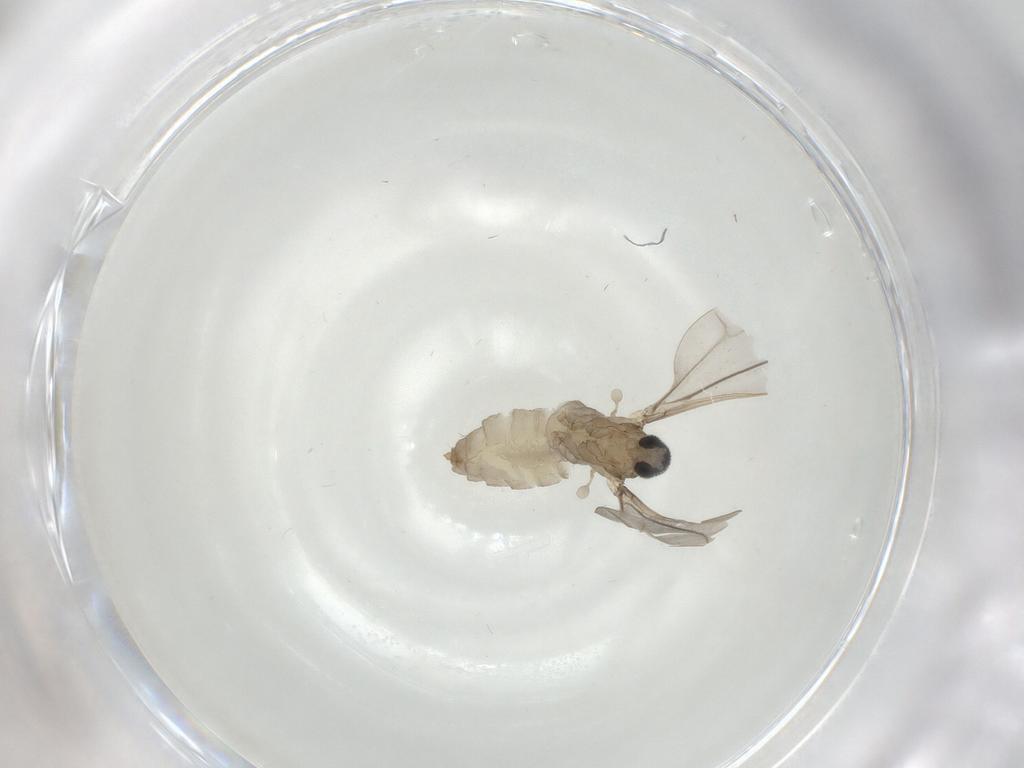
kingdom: Animalia
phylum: Arthropoda
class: Insecta
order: Diptera
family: Cecidomyiidae
